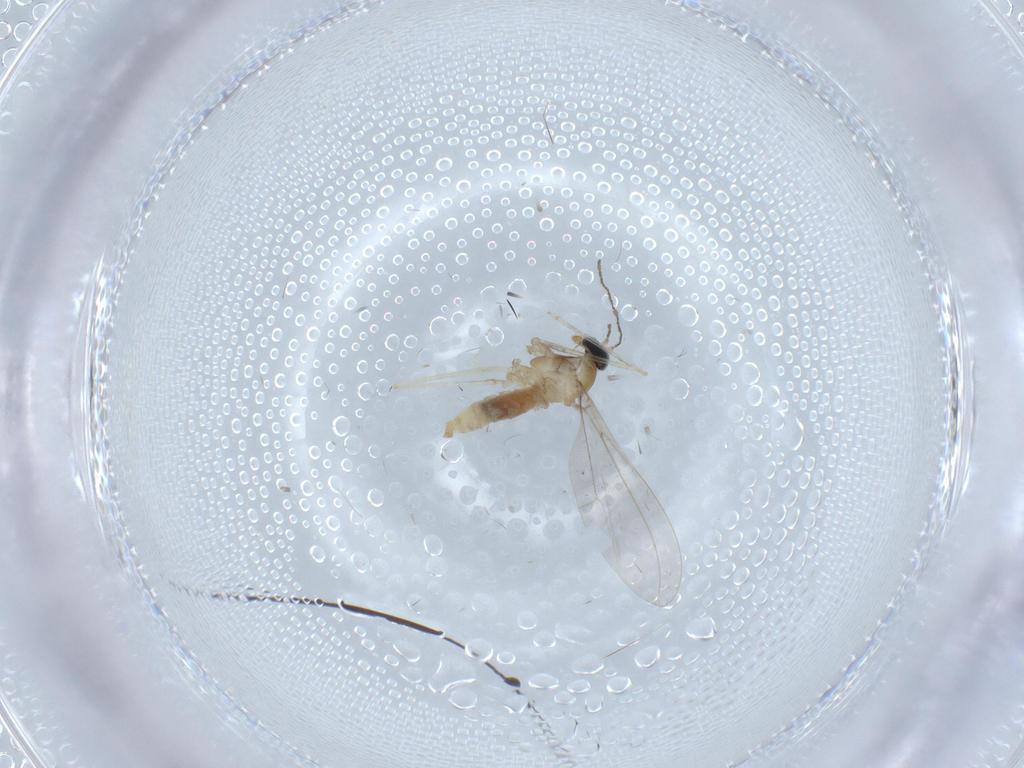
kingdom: Animalia
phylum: Arthropoda
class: Insecta
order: Diptera
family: Cecidomyiidae
